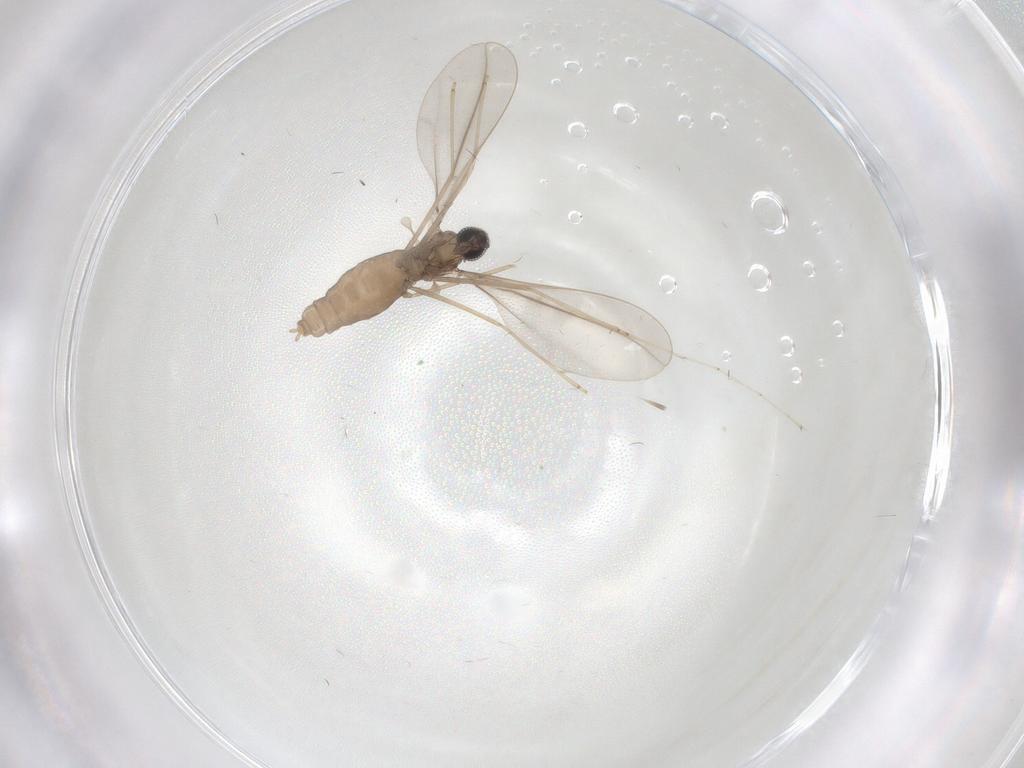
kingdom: Animalia
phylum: Arthropoda
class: Insecta
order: Diptera
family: Chironomidae
